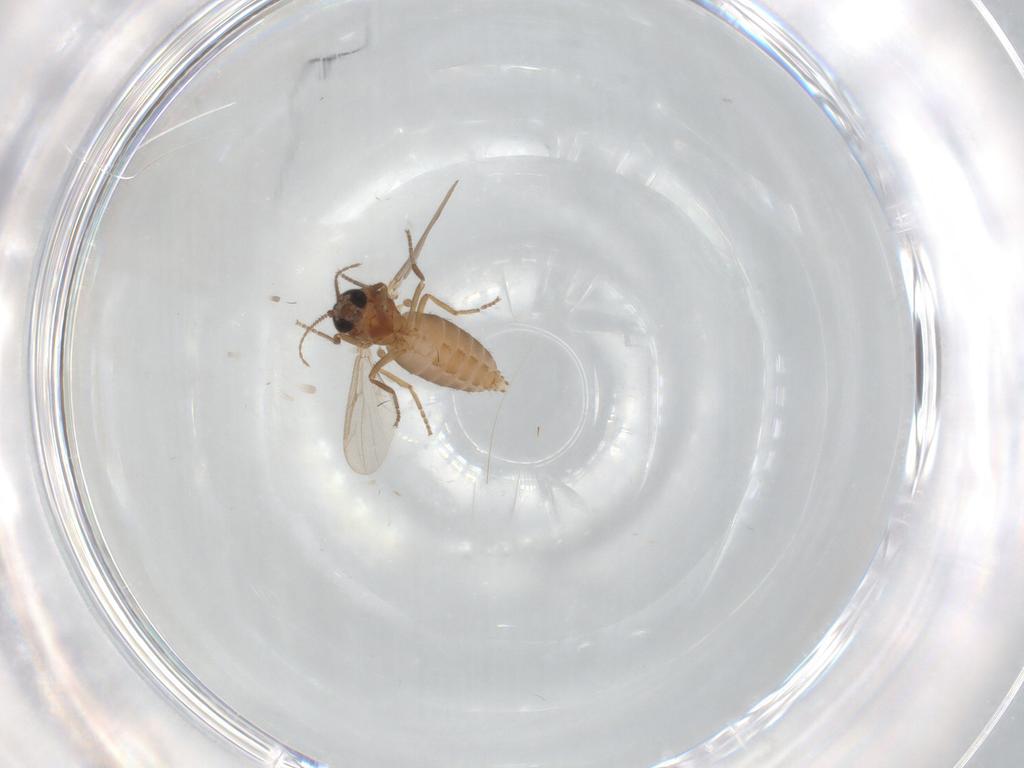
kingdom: Animalia
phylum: Arthropoda
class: Insecta
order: Diptera
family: Ceratopogonidae
